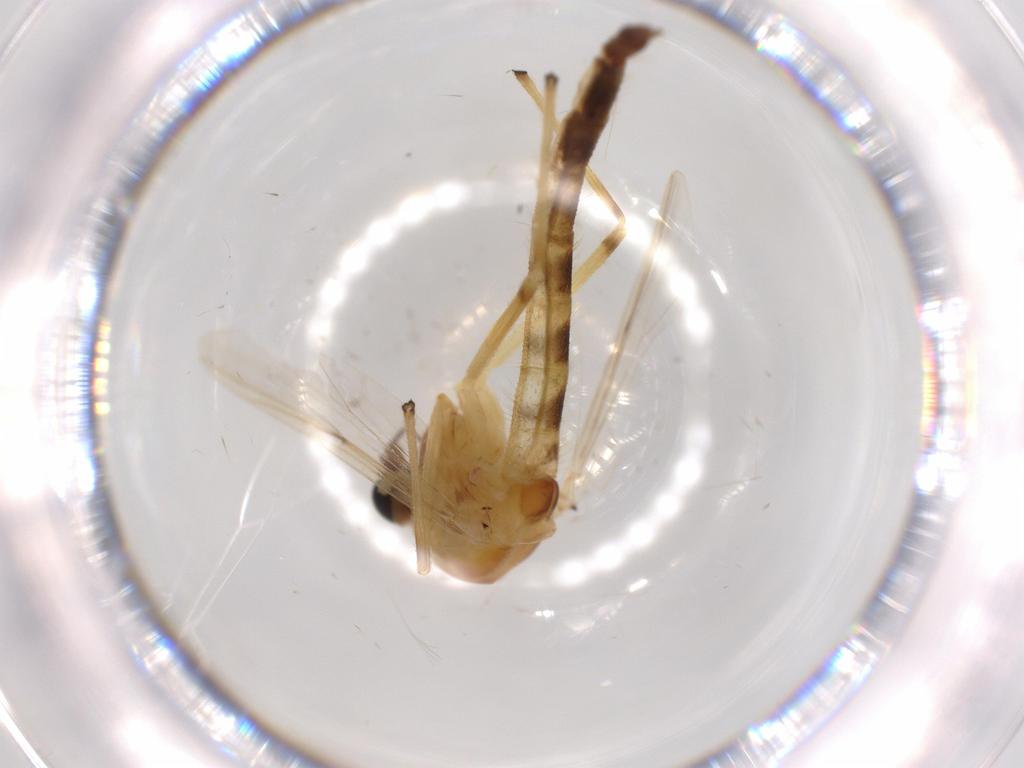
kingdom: Animalia
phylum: Arthropoda
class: Insecta
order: Diptera
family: Chironomidae
